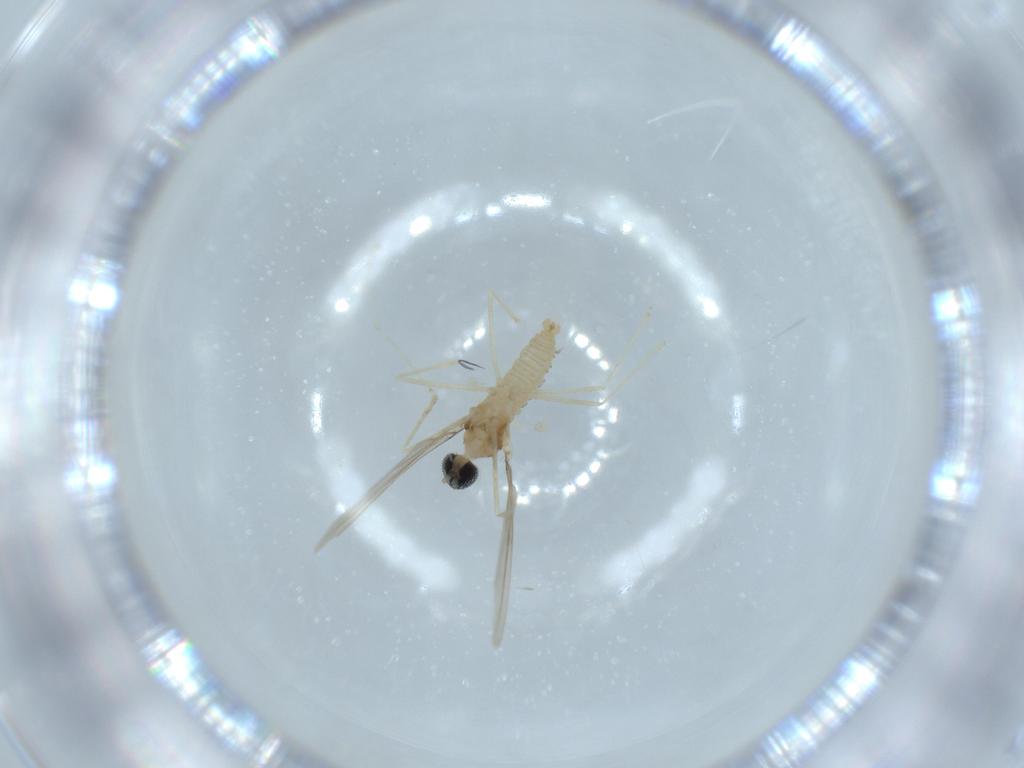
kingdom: Animalia
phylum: Arthropoda
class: Insecta
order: Diptera
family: Cecidomyiidae
